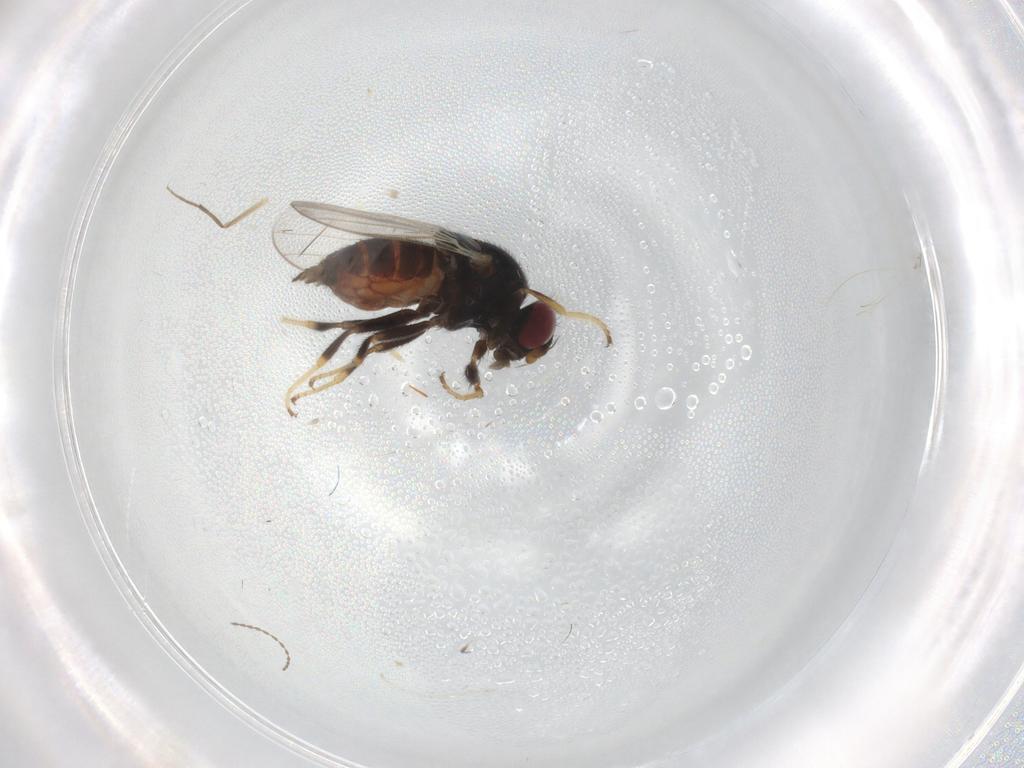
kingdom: Animalia
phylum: Arthropoda
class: Insecta
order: Diptera
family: Chloropidae
